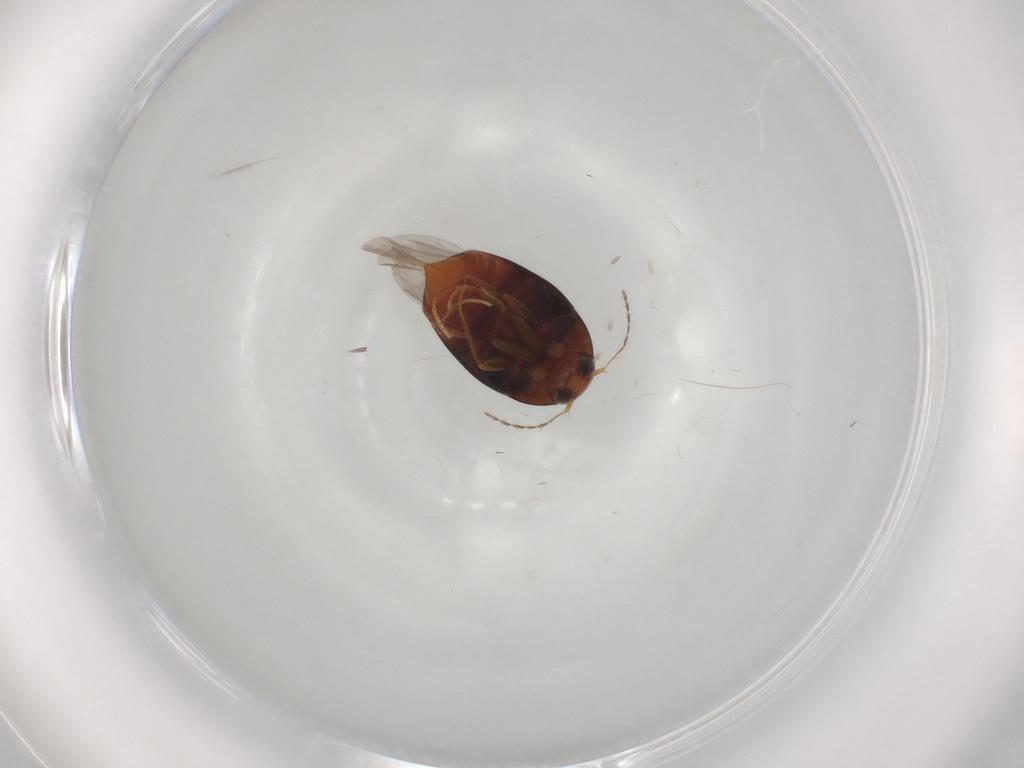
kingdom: Animalia
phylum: Arthropoda
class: Insecta
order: Coleoptera
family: Staphylinidae
